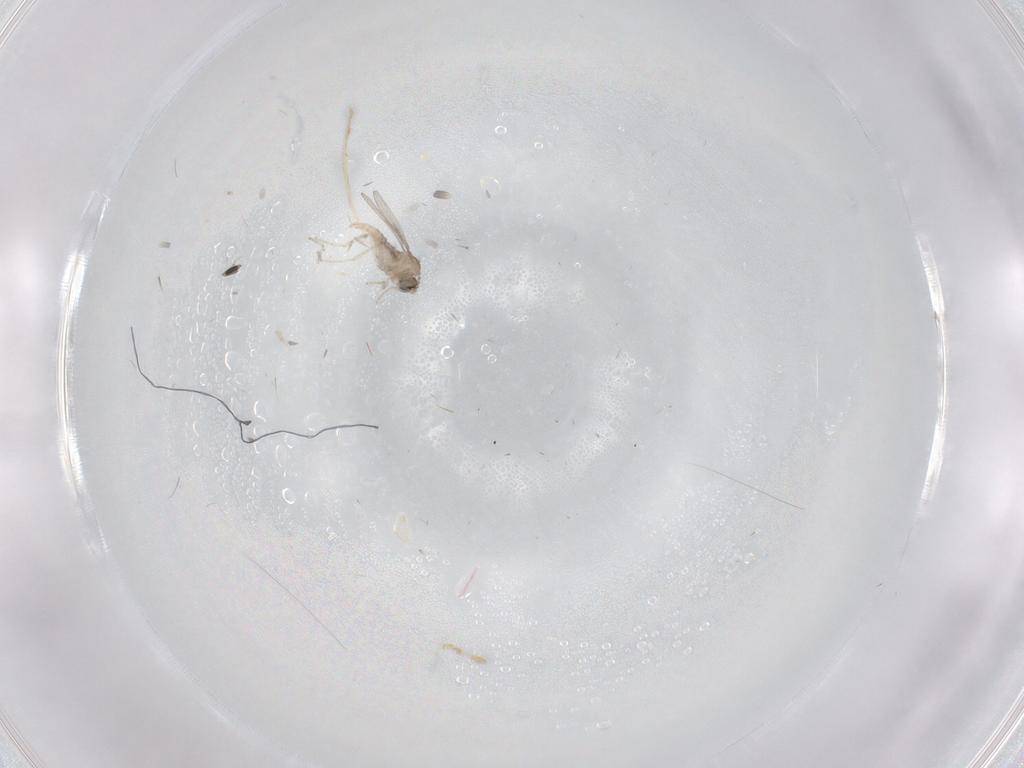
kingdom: Animalia
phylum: Arthropoda
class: Insecta
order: Diptera
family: Cecidomyiidae
